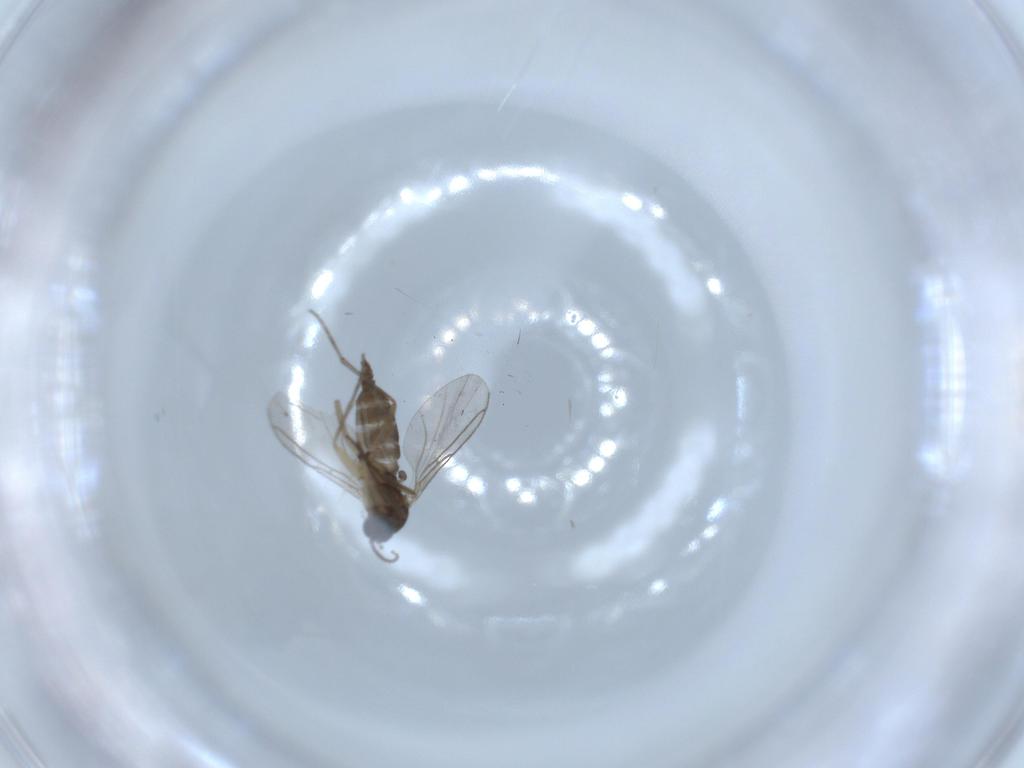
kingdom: Animalia
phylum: Arthropoda
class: Insecta
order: Diptera
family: Sciaridae
